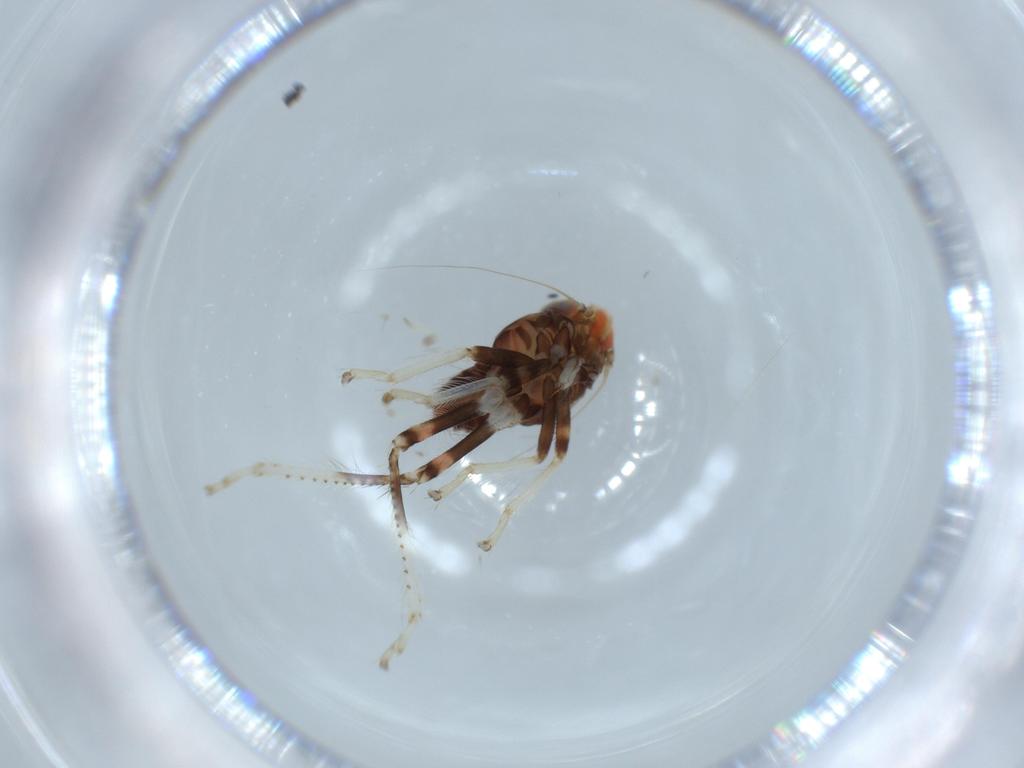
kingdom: Animalia
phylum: Arthropoda
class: Insecta
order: Hemiptera
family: Cicadellidae
